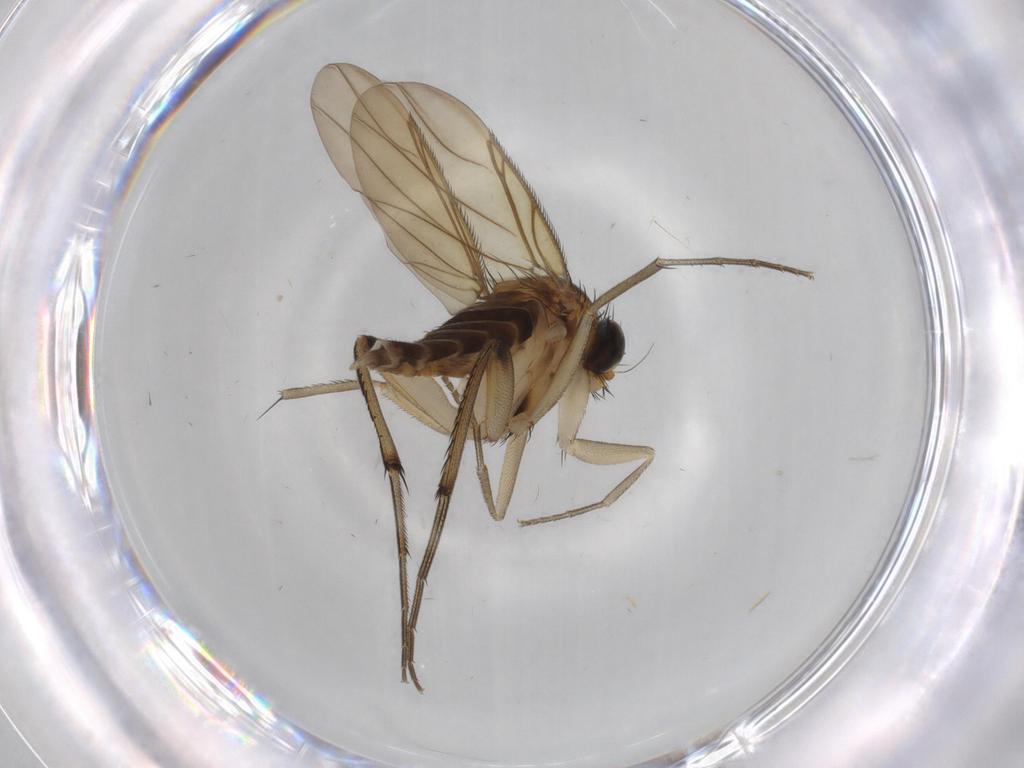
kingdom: Animalia
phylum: Arthropoda
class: Insecta
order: Diptera
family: Phoridae
